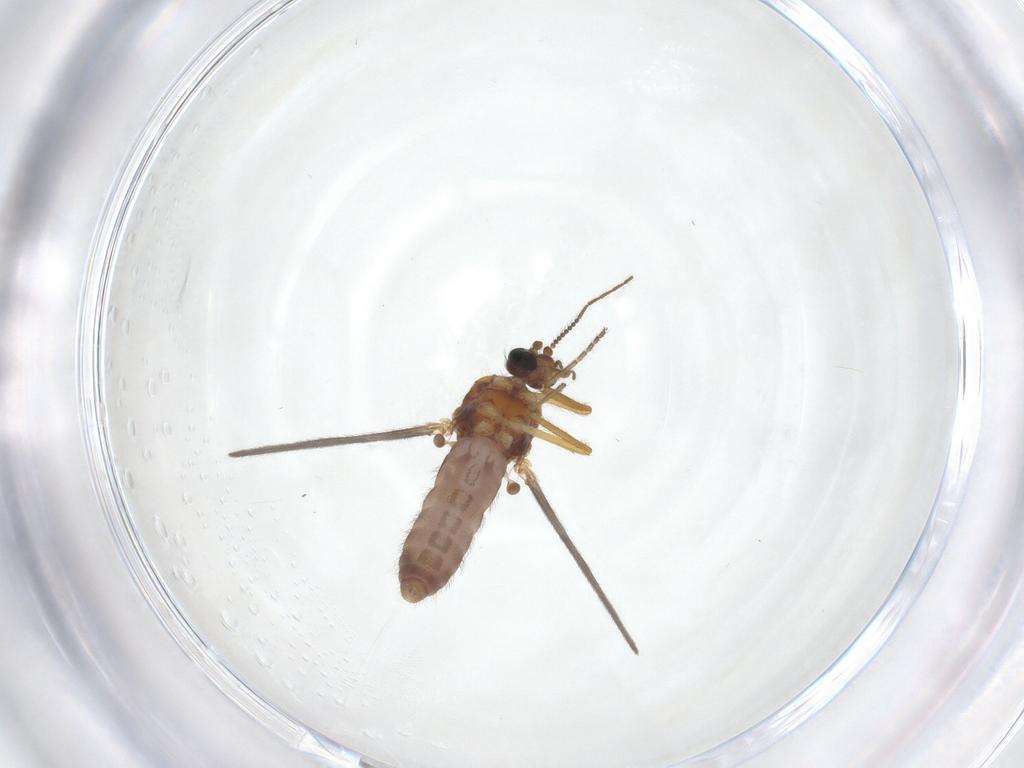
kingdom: Animalia
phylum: Arthropoda
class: Insecta
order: Diptera
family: Ceratopogonidae
